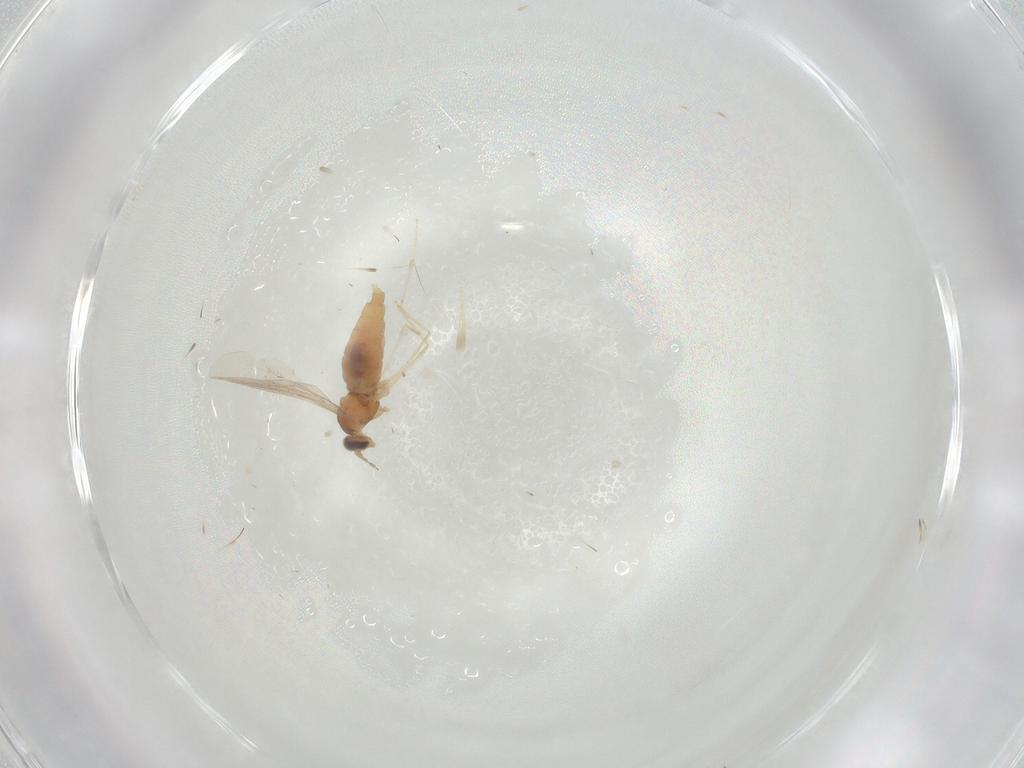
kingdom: Animalia
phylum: Arthropoda
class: Insecta
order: Diptera
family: Cecidomyiidae
